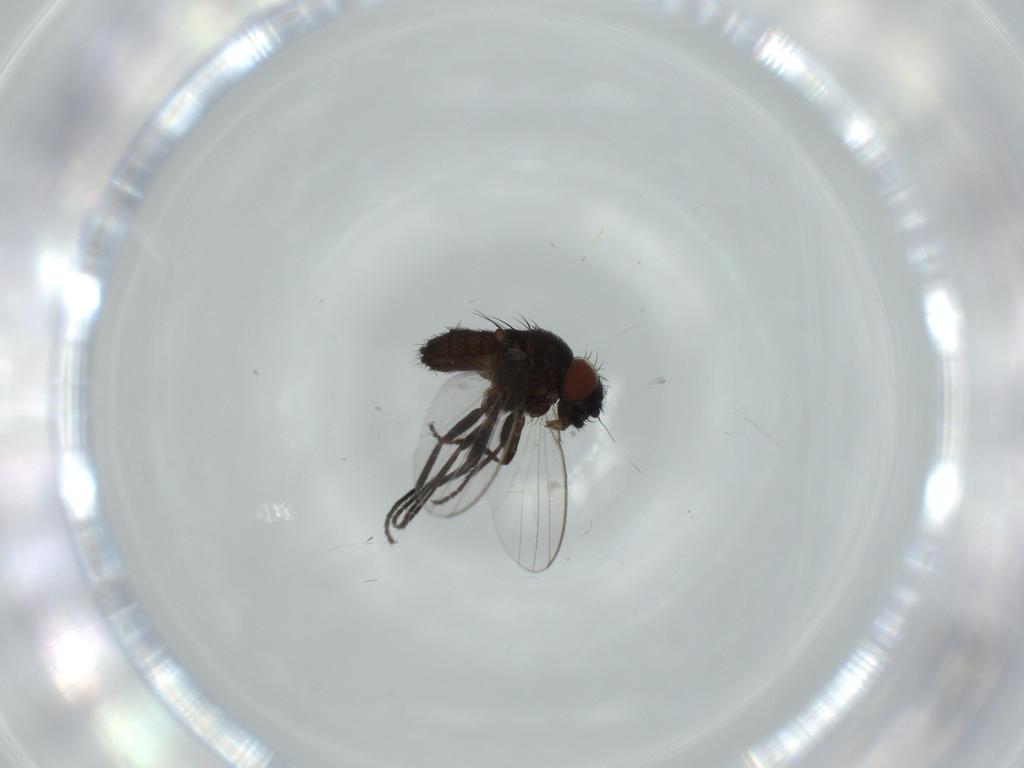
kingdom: Animalia
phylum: Arthropoda
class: Insecta
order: Diptera
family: Milichiidae
